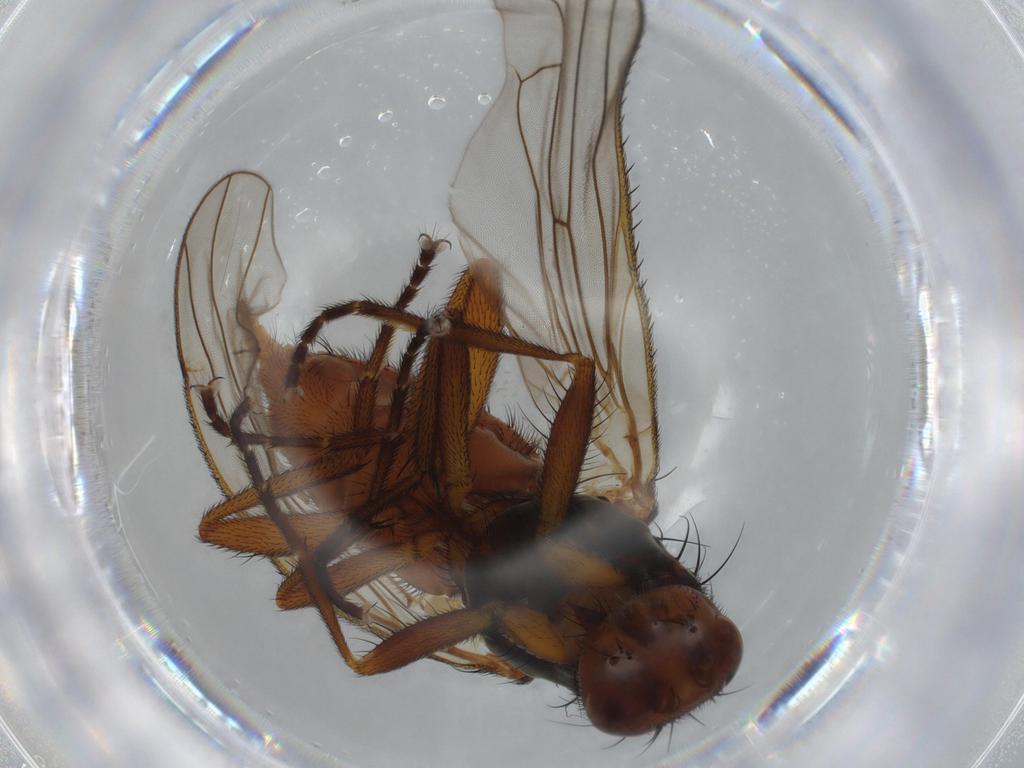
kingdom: Animalia
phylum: Arthropoda
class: Insecta
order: Diptera
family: Heleomyzidae
